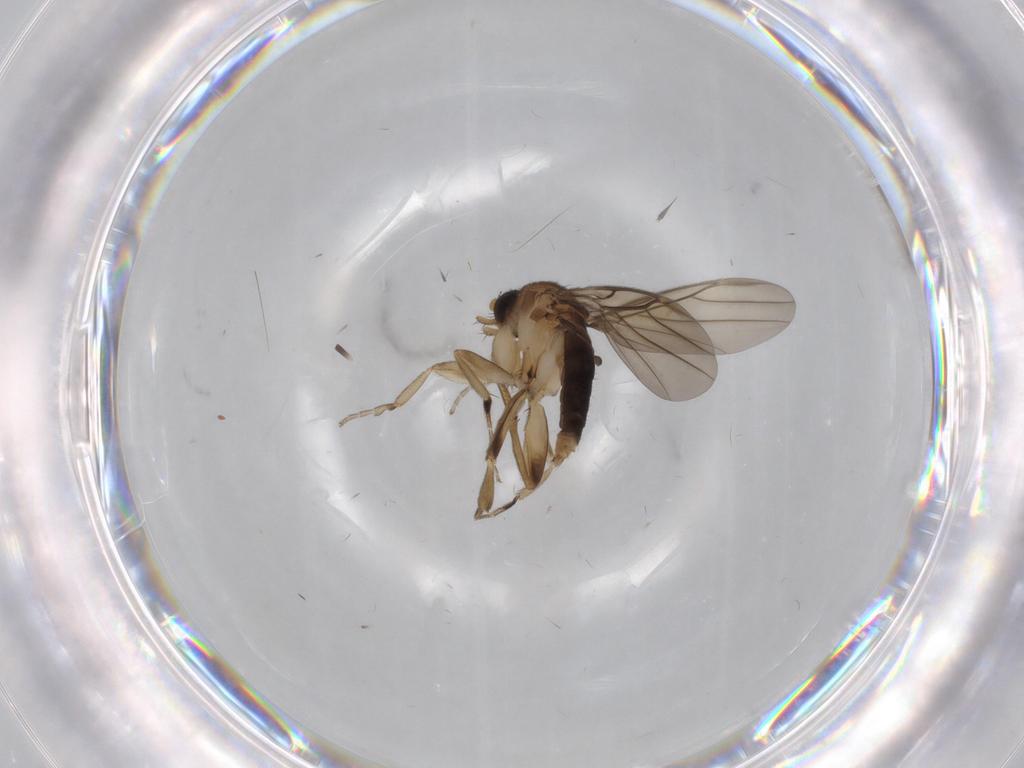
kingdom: Animalia
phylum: Arthropoda
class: Insecta
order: Diptera
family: Phoridae
